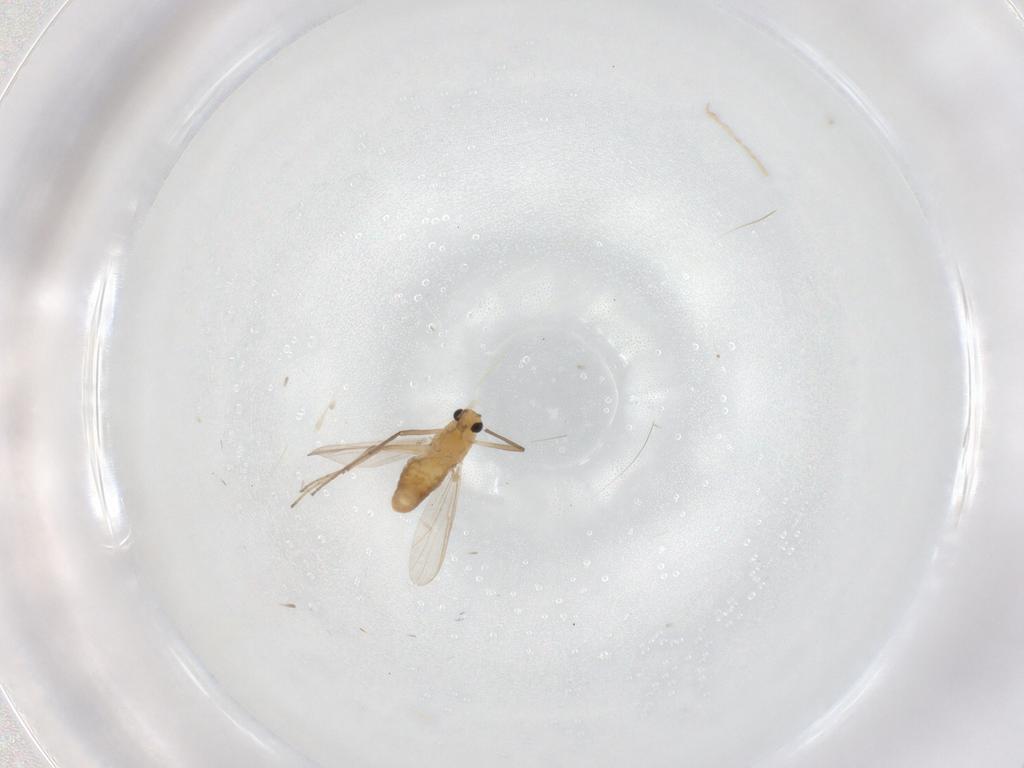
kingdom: Animalia
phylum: Arthropoda
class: Insecta
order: Diptera
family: Chironomidae
